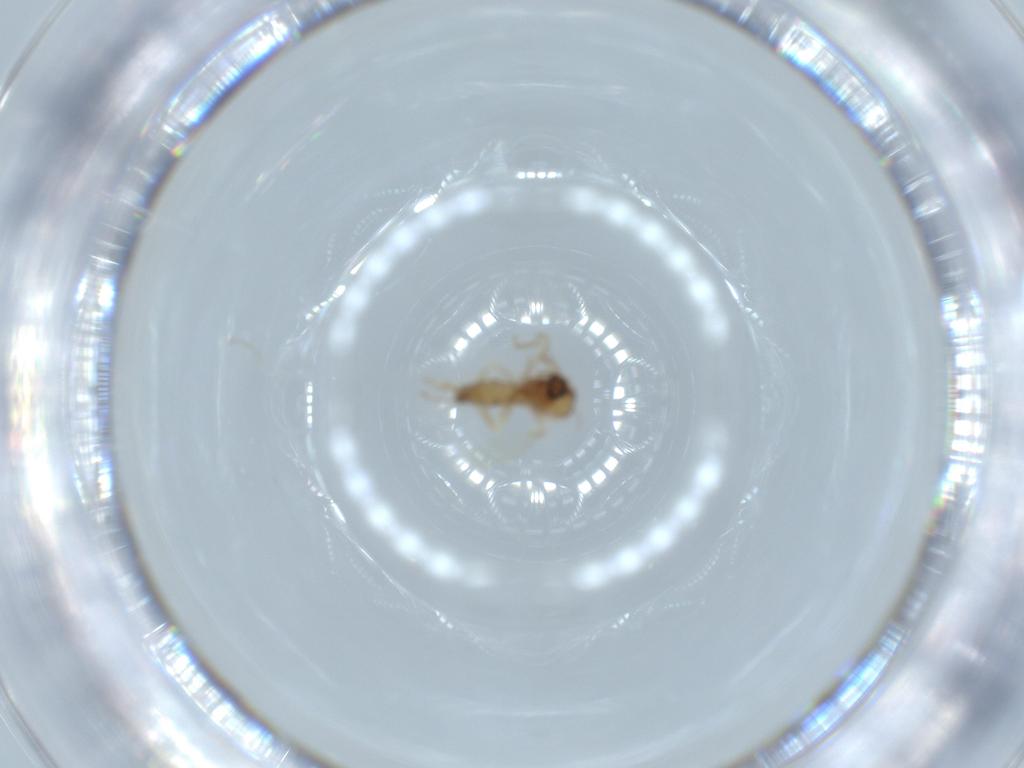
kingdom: Animalia
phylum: Arthropoda
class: Insecta
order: Diptera
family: Ceratopogonidae
